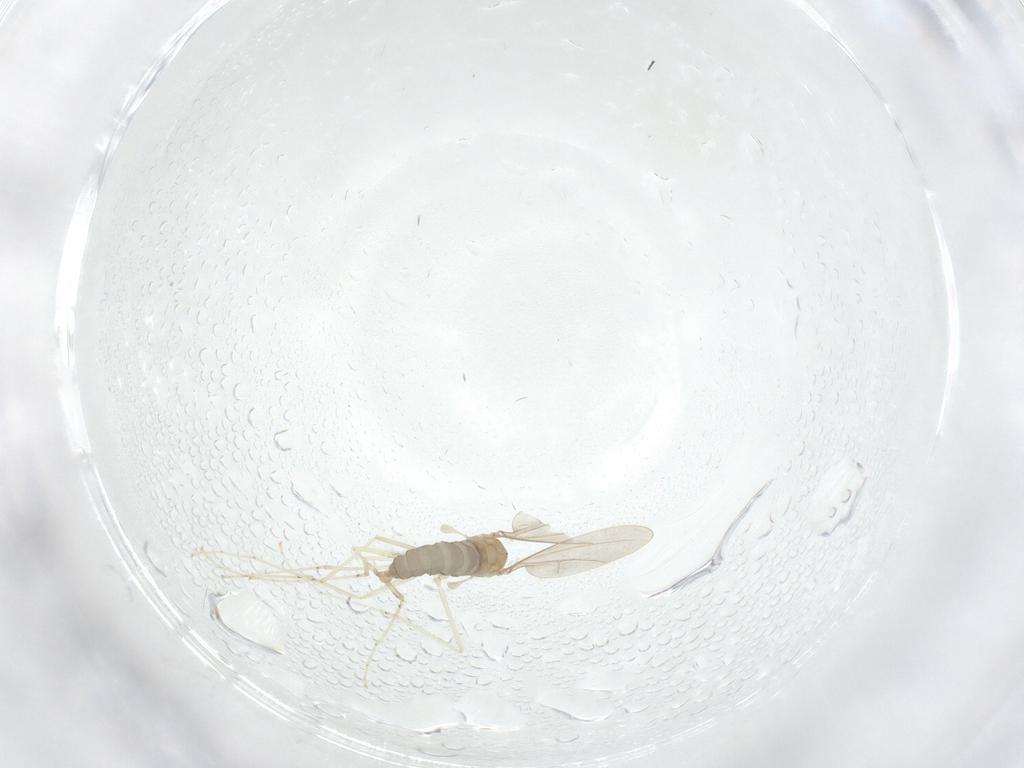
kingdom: Animalia
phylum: Arthropoda
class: Insecta
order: Diptera
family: Cecidomyiidae
